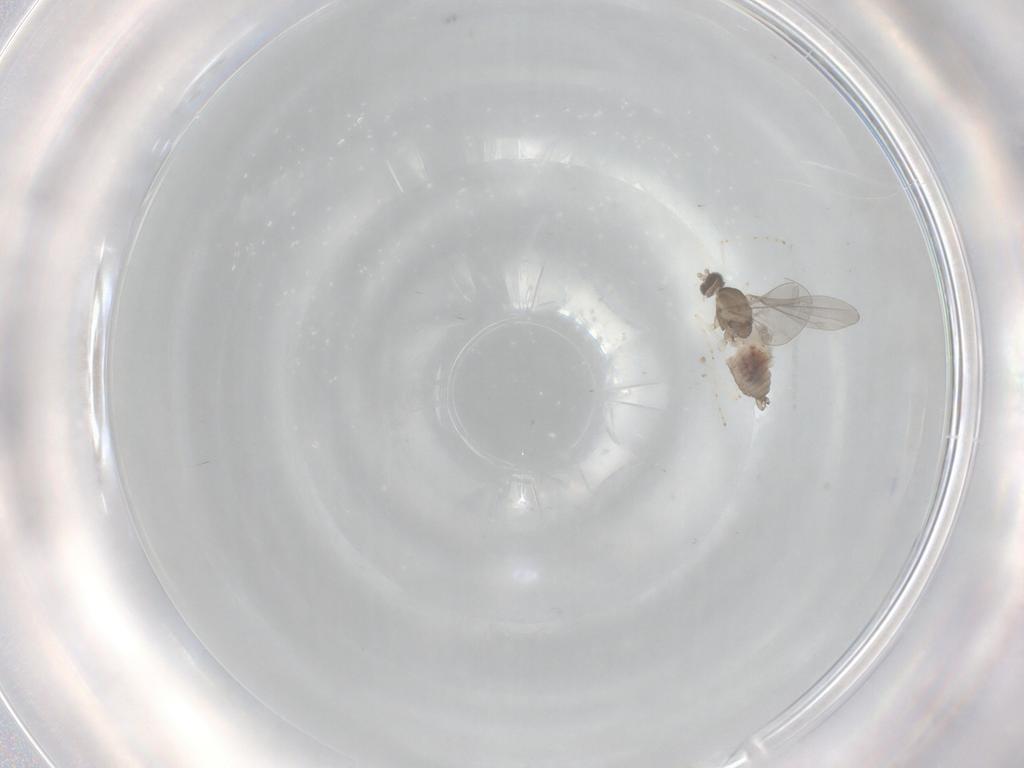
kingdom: Animalia
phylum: Arthropoda
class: Insecta
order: Diptera
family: Cecidomyiidae
